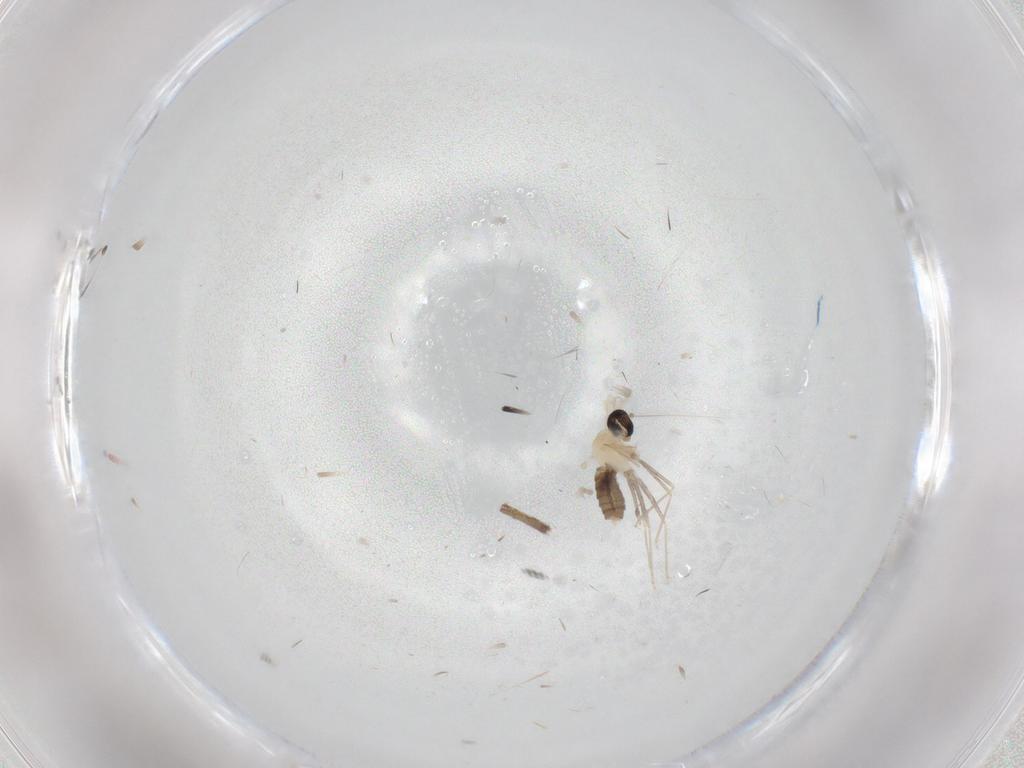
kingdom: Animalia
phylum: Arthropoda
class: Insecta
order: Diptera
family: Cecidomyiidae
